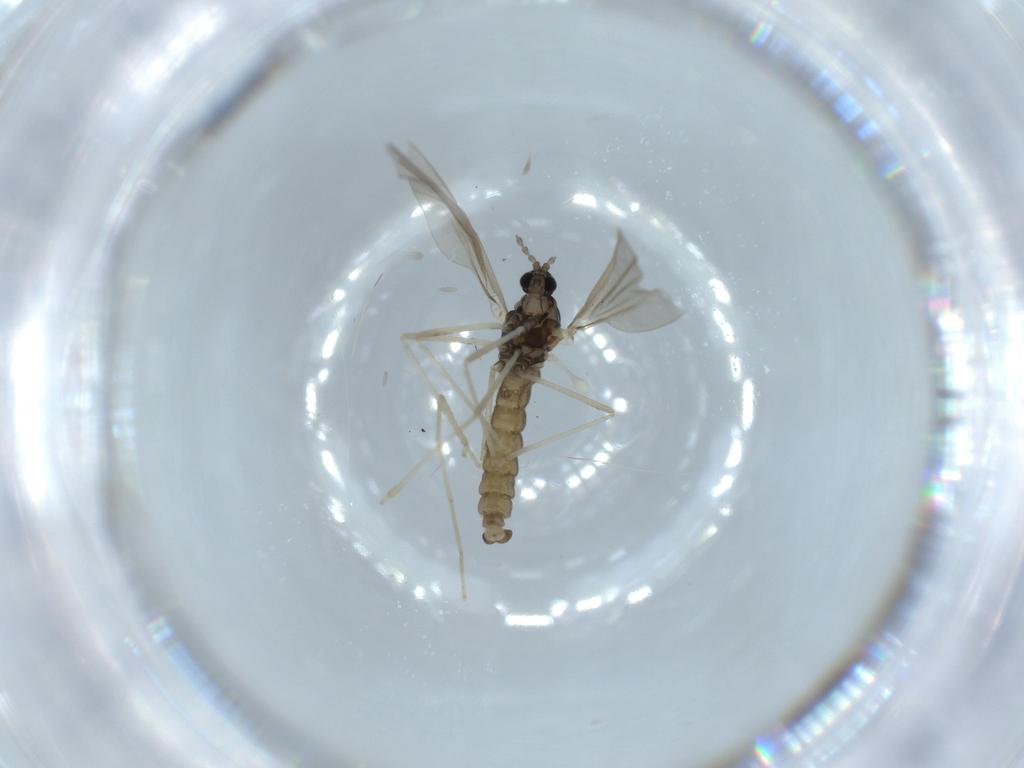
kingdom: Animalia
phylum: Arthropoda
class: Insecta
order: Diptera
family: Cecidomyiidae
